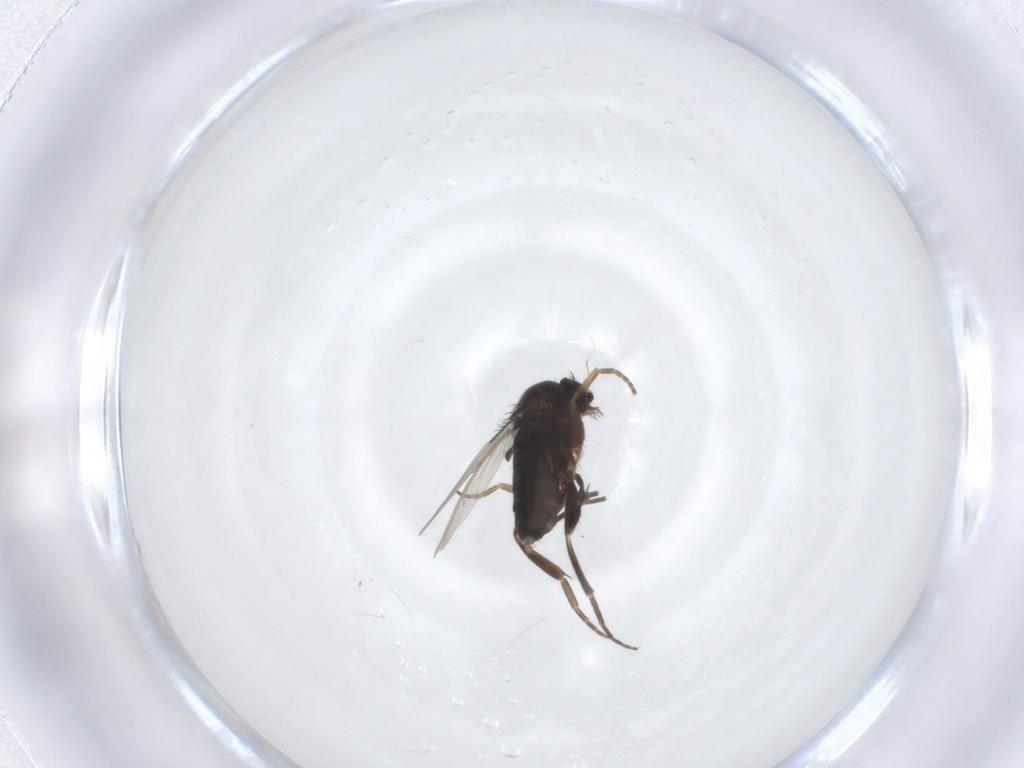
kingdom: Animalia
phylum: Arthropoda
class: Insecta
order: Diptera
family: Phoridae
